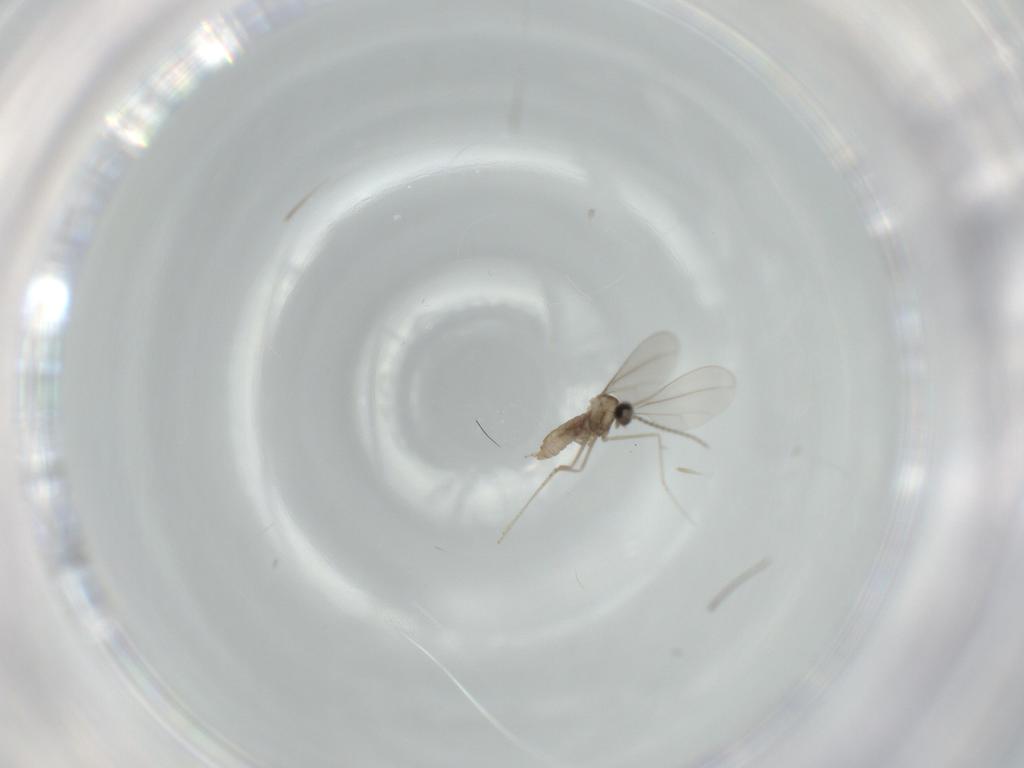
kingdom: Animalia
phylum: Arthropoda
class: Insecta
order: Diptera
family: Cecidomyiidae
